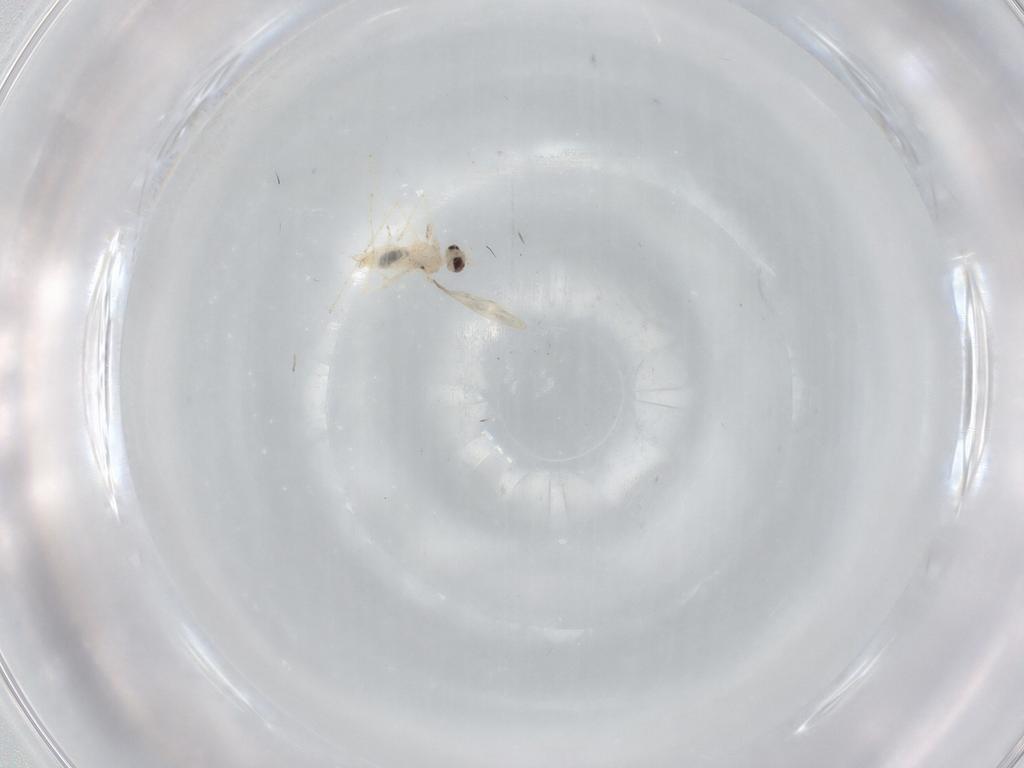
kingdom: Animalia
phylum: Arthropoda
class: Insecta
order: Diptera
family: Cecidomyiidae
